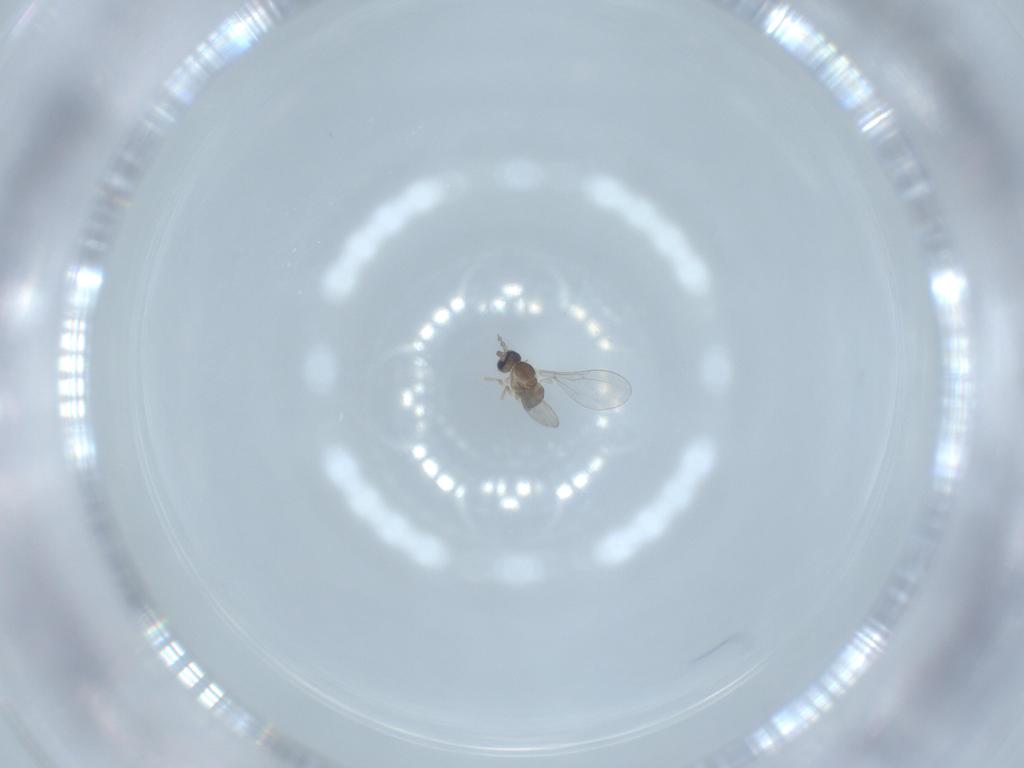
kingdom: Animalia
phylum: Arthropoda
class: Insecta
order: Diptera
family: Cecidomyiidae
